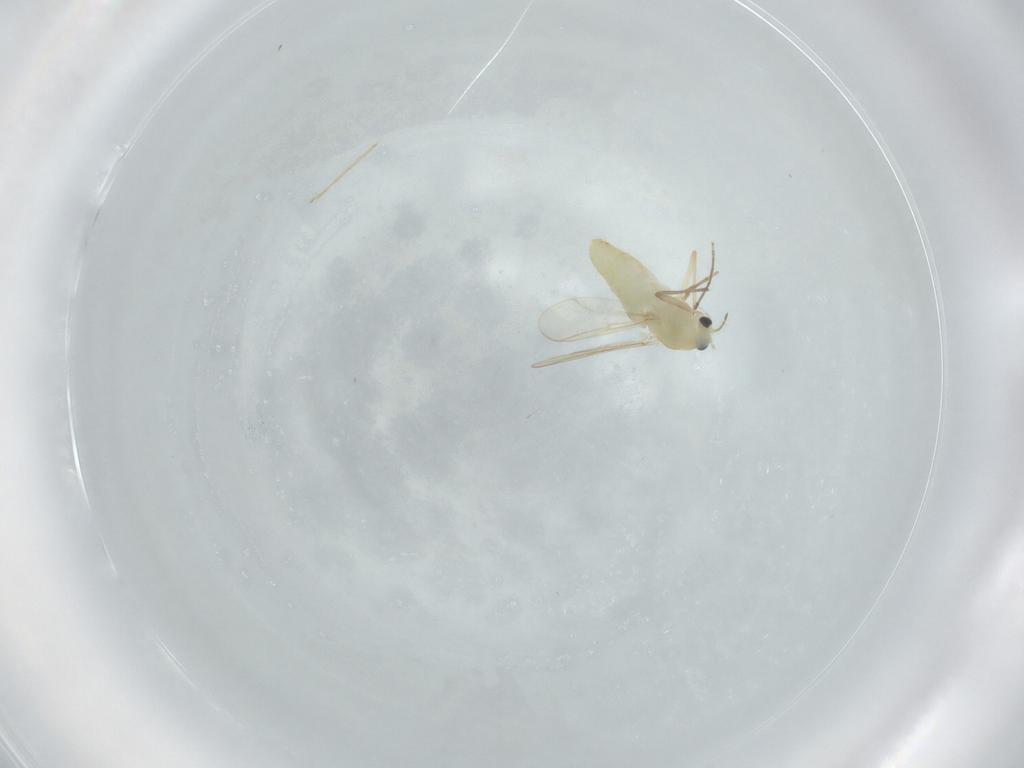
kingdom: Animalia
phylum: Arthropoda
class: Insecta
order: Diptera
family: Chironomidae
